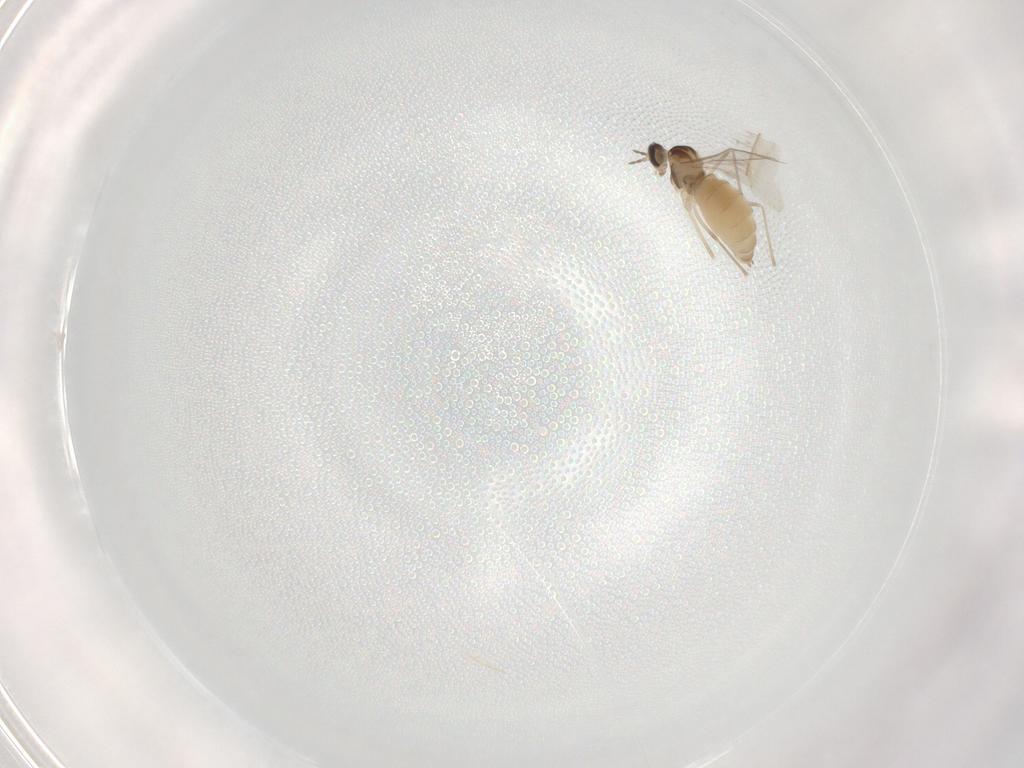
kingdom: Animalia
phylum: Arthropoda
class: Insecta
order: Diptera
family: Cecidomyiidae
